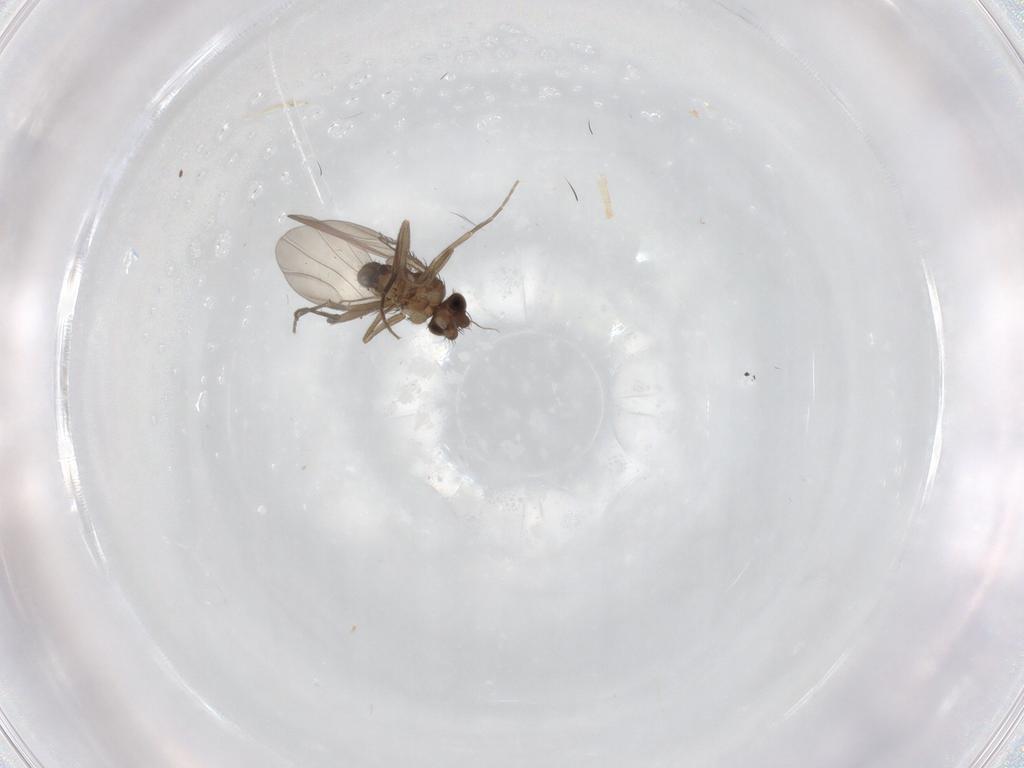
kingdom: Animalia
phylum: Arthropoda
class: Insecta
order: Diptera
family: Phoridae
